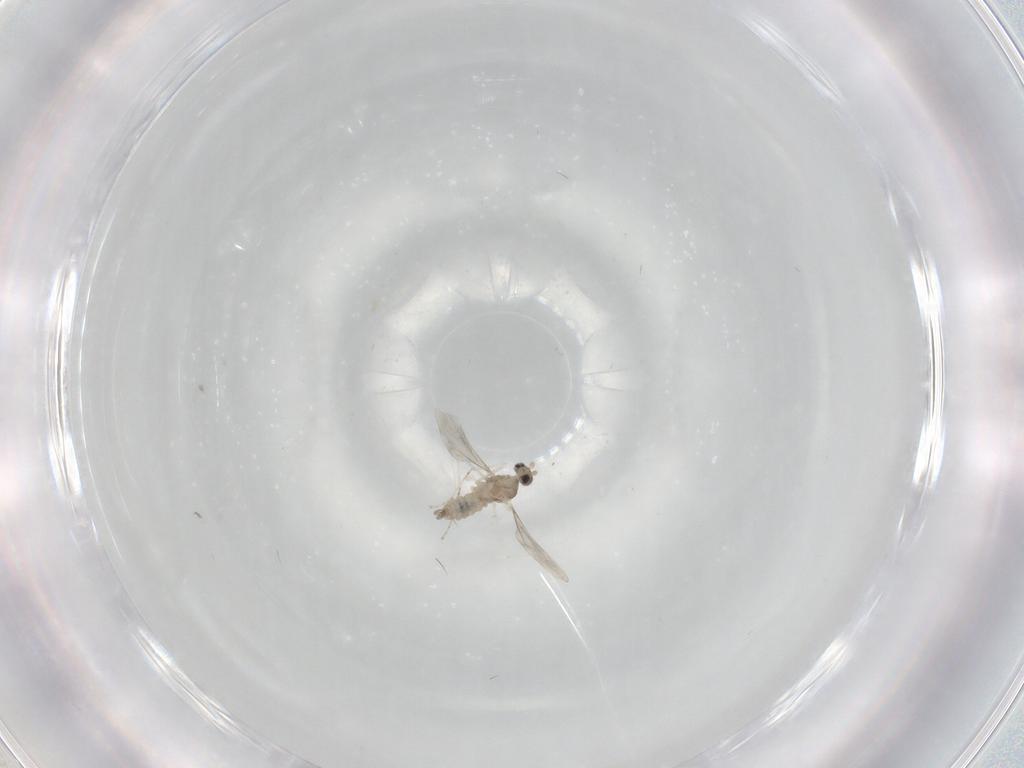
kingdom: Animalia
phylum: Arthropoda
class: Insecta
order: Diptera
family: Cecidomyiidae
